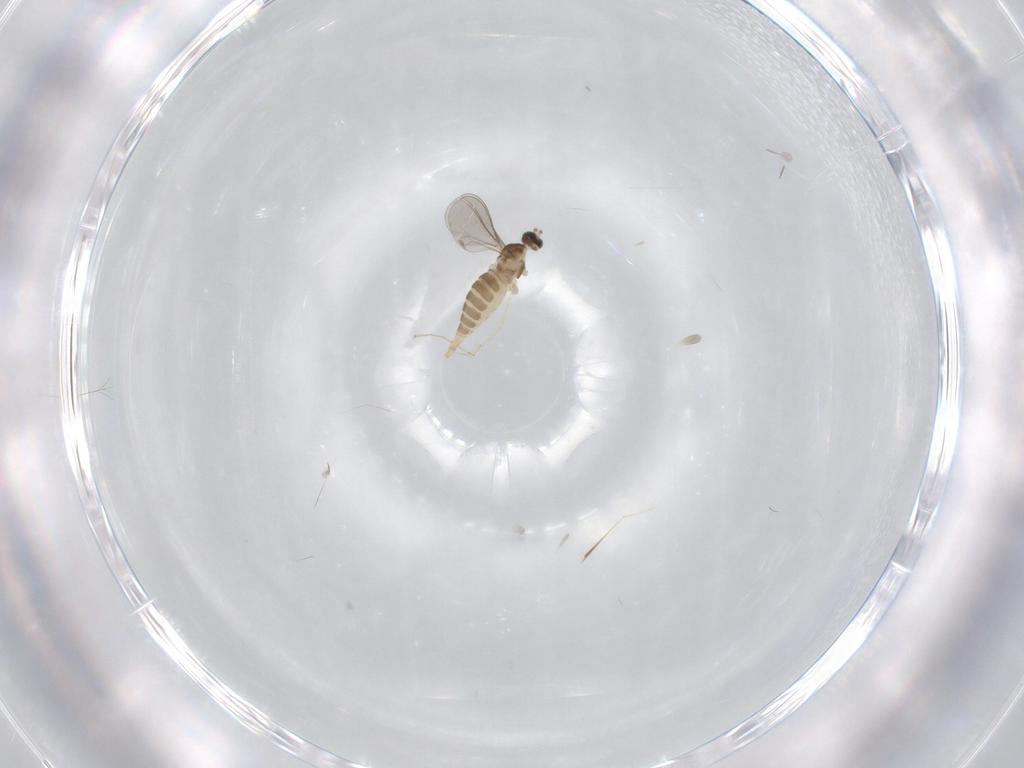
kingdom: Animalia
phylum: Arthropoda
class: Insecta
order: Diptera
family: Cecidomyiidae
